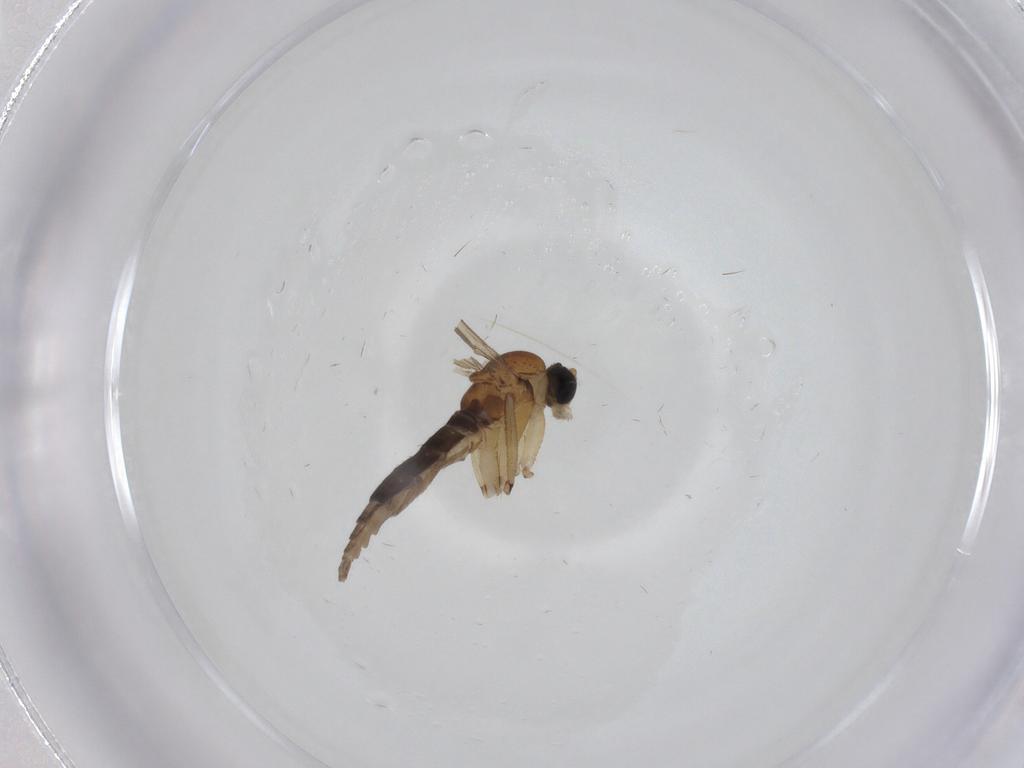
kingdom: Animalia
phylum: Arthropoda
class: Insecta
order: Diptera
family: Sciaridae
